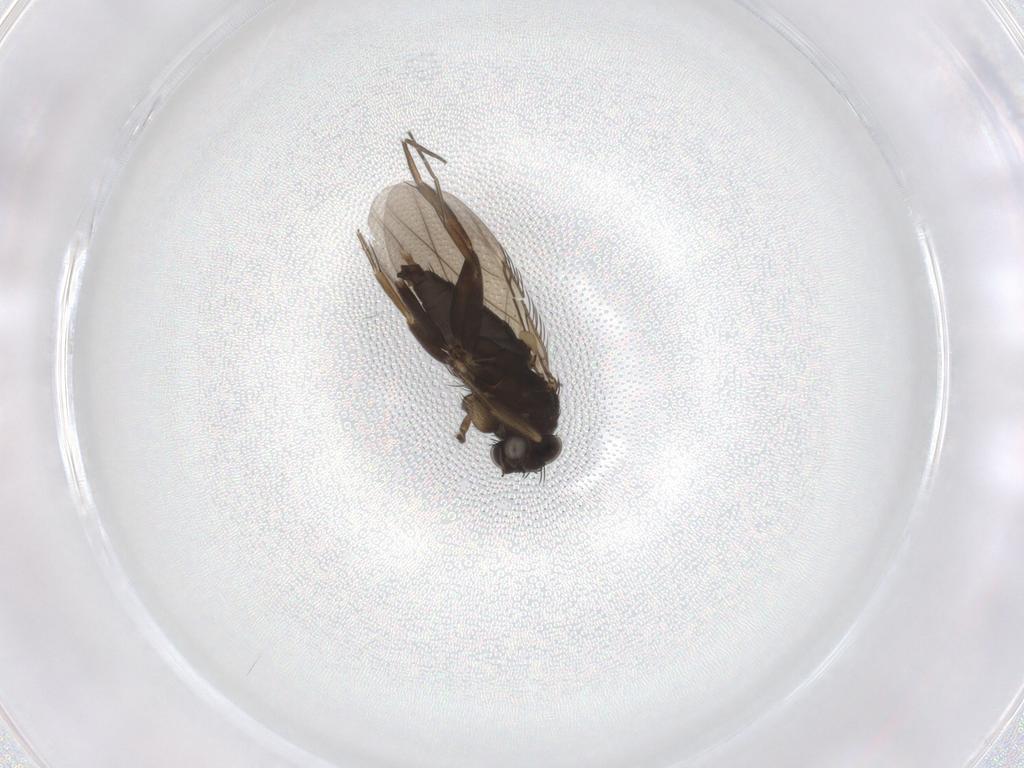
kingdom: Animalia
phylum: Arthropoda
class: Insecta
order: Diptera
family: Phoridae
